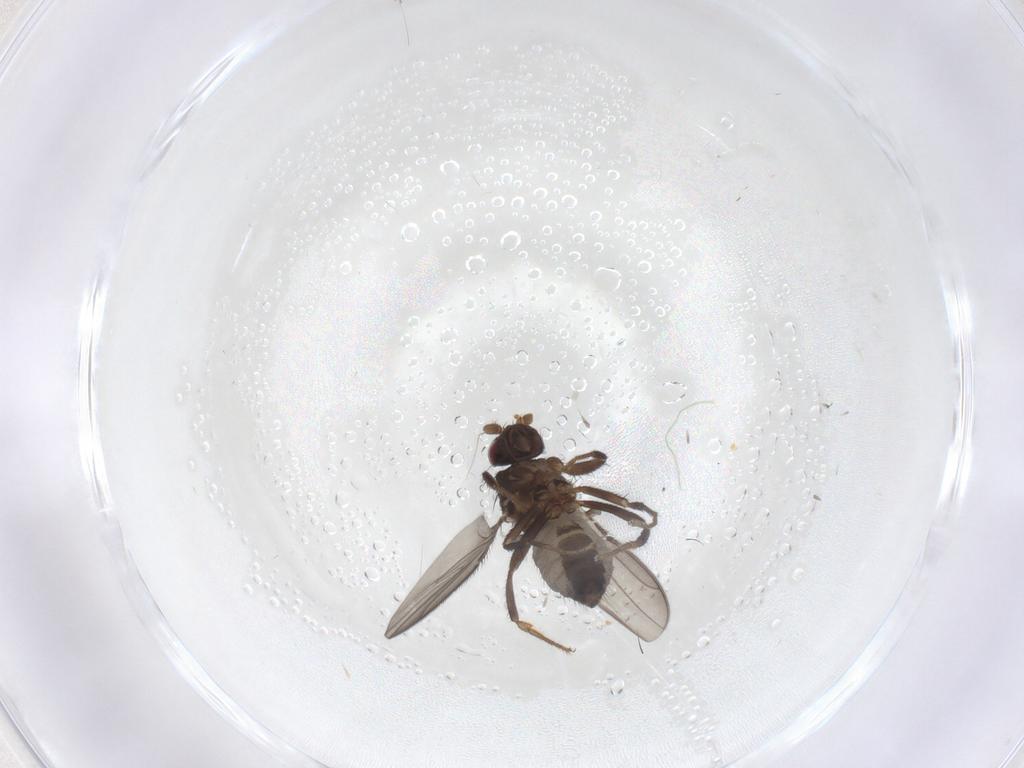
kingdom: Animalia
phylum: Arthropoda
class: Insecta
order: Diptera
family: Sphaeroceridae
